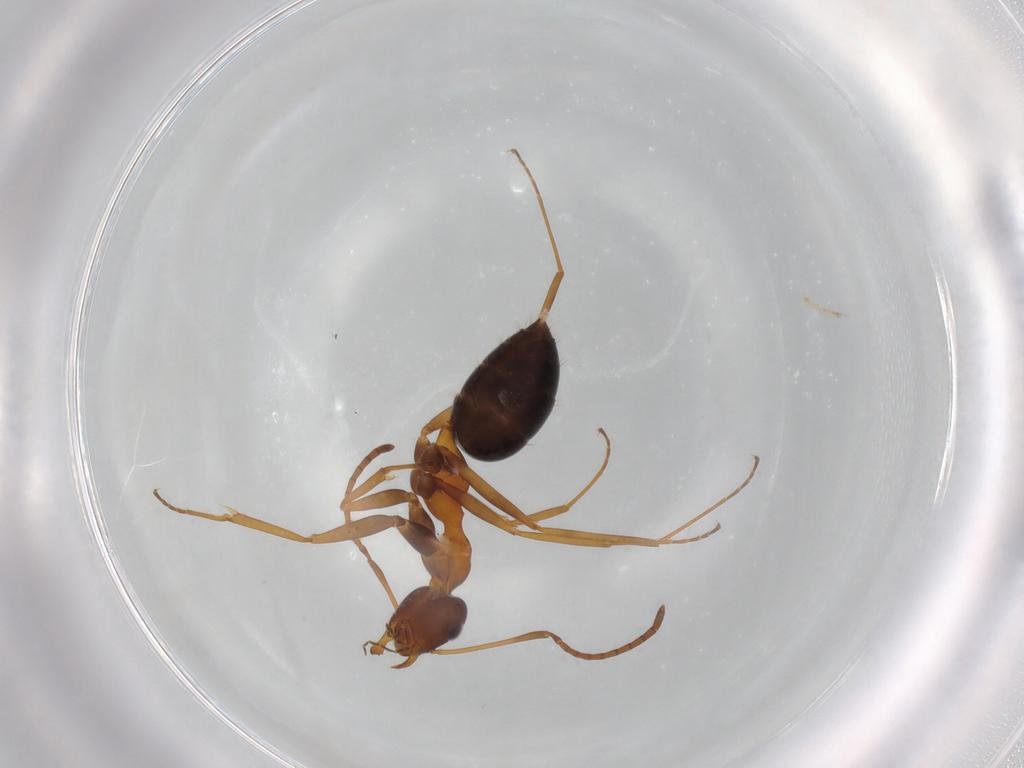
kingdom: Animalia
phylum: Arthropoda
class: Insecta
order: Hymenoptera
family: Formicidae
